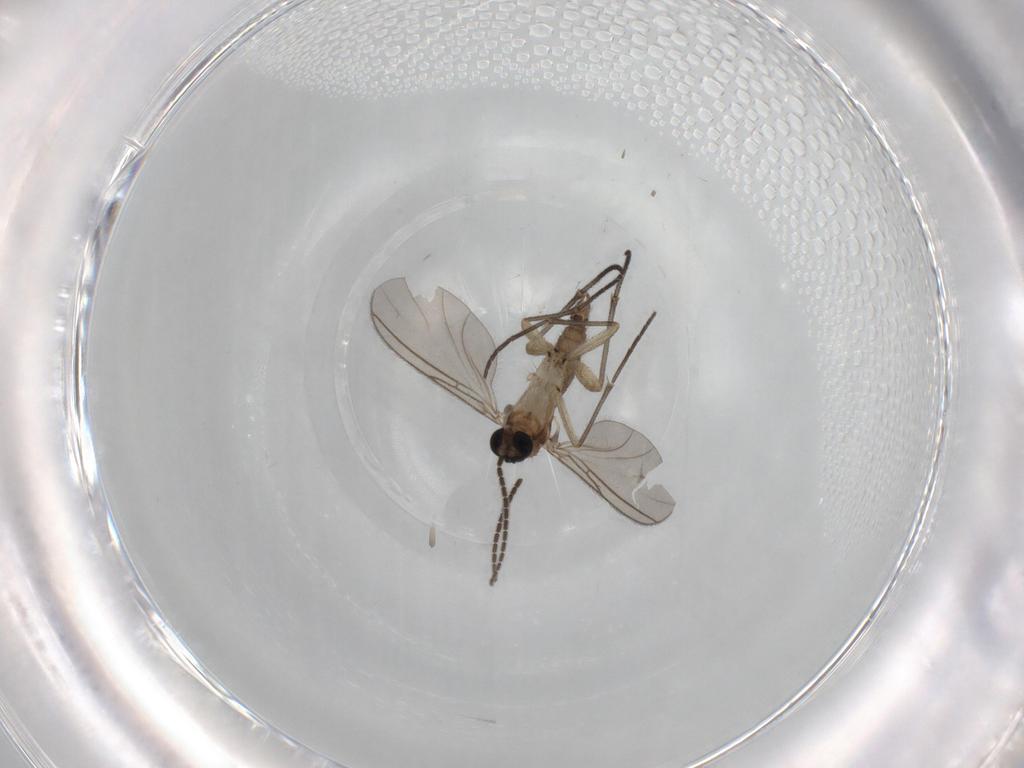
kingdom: Animalia
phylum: Arthropoda
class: Insecta
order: Diptera
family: Sciaridae
